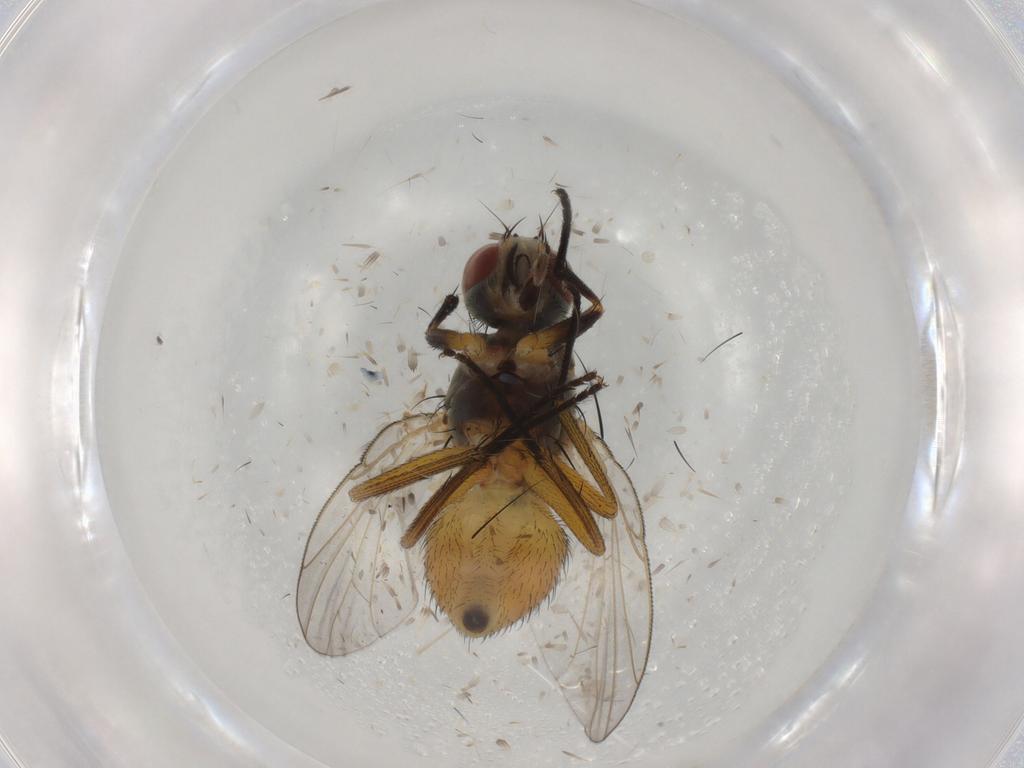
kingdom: Animalia
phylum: Arthropoda
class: Insecta
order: Diptera
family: Muscidae
